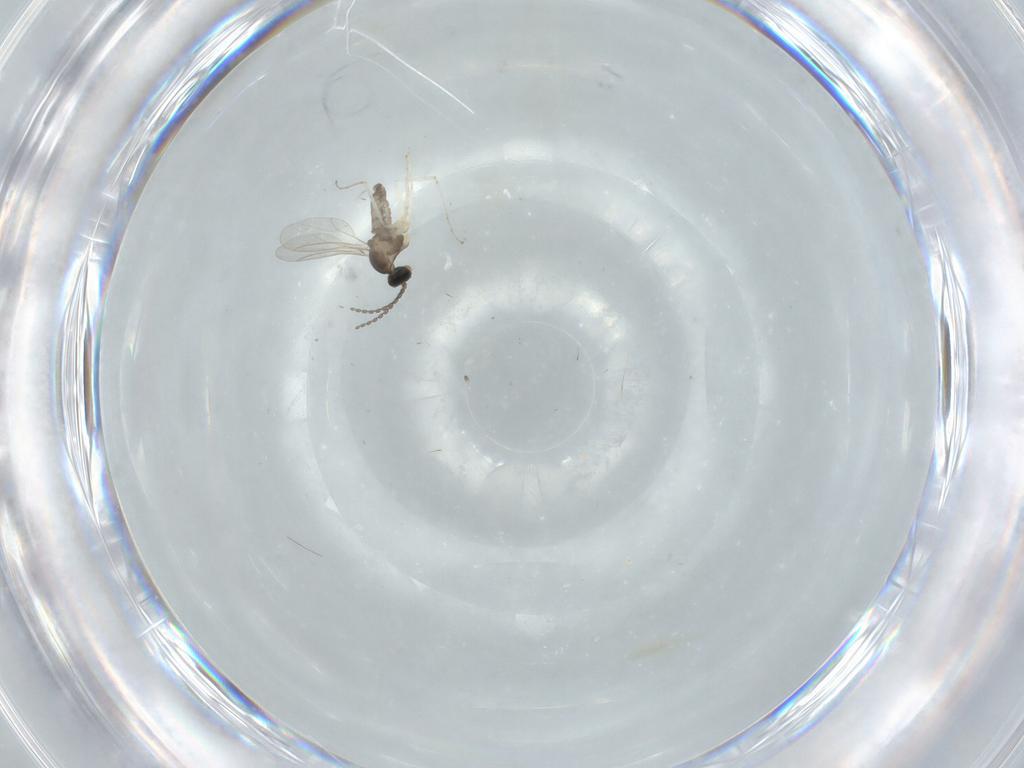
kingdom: Animalia
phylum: Arthropoda
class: Insecta
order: Diptera
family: Cecidomyiidae
